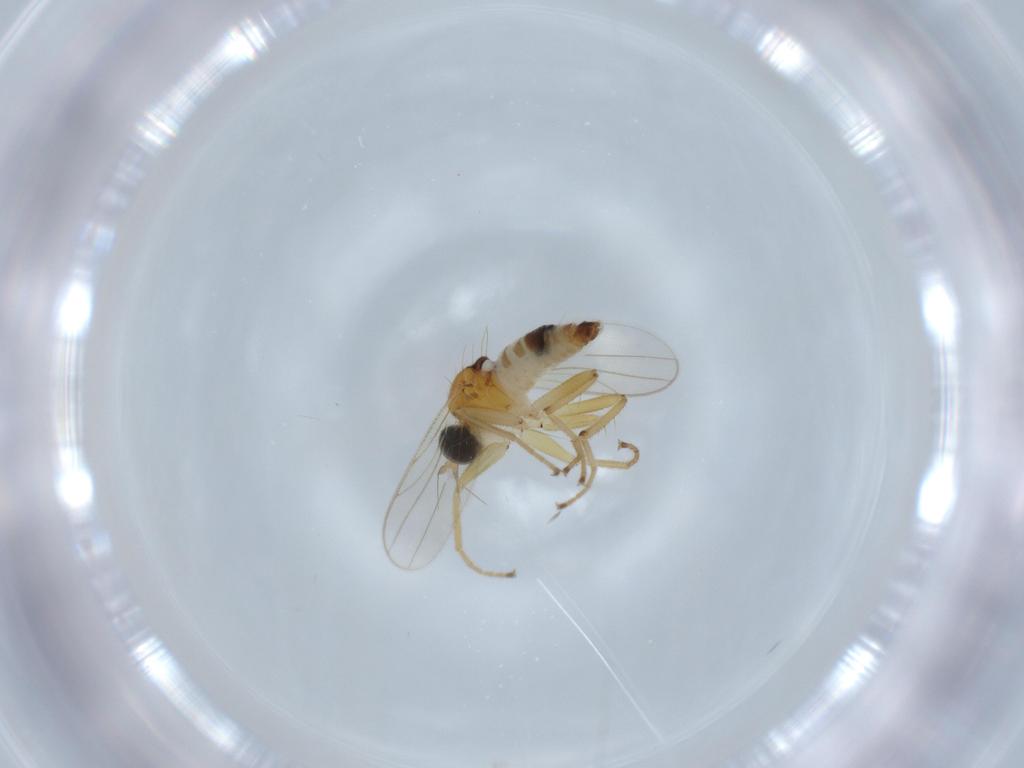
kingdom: Animalia
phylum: Arthropoda
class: Insecta
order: Diptera
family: Hybotidae
